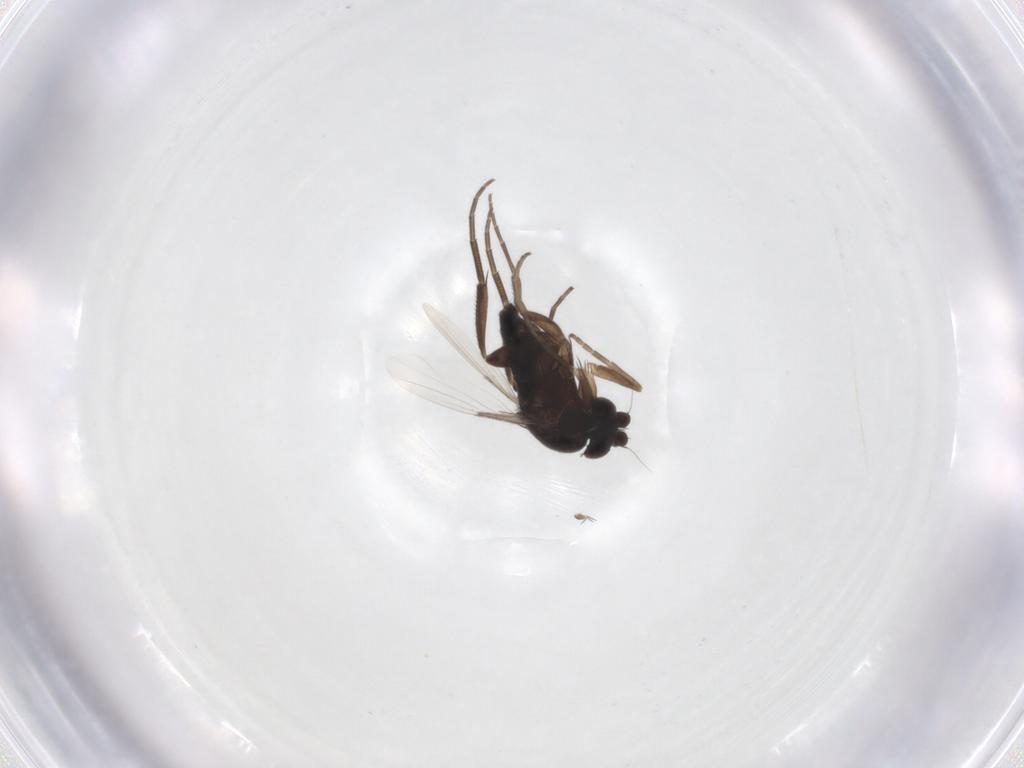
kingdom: Animalia
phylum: Arthropoda
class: Insecta
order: Diptera
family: Phoridae
